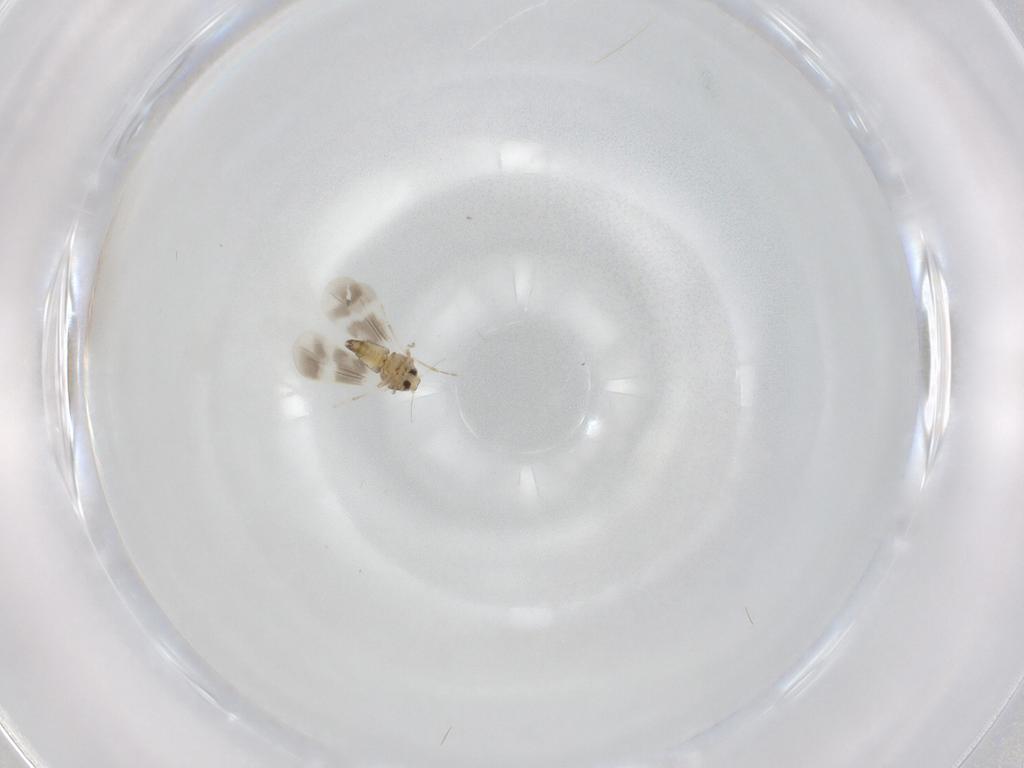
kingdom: Animalia
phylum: Arthropoda
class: Insecta
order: Hemiptera
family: Aleyrodidae
